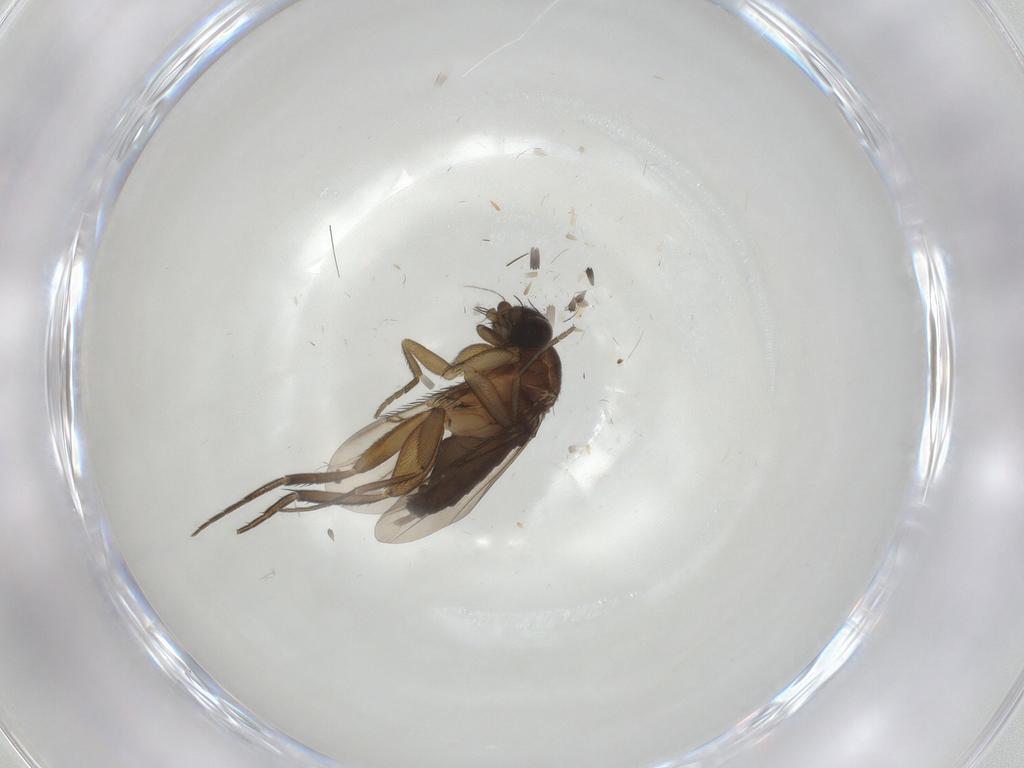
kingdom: Animalia
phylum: Arthropoda
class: Insecta
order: Diptera
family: Phoridae
